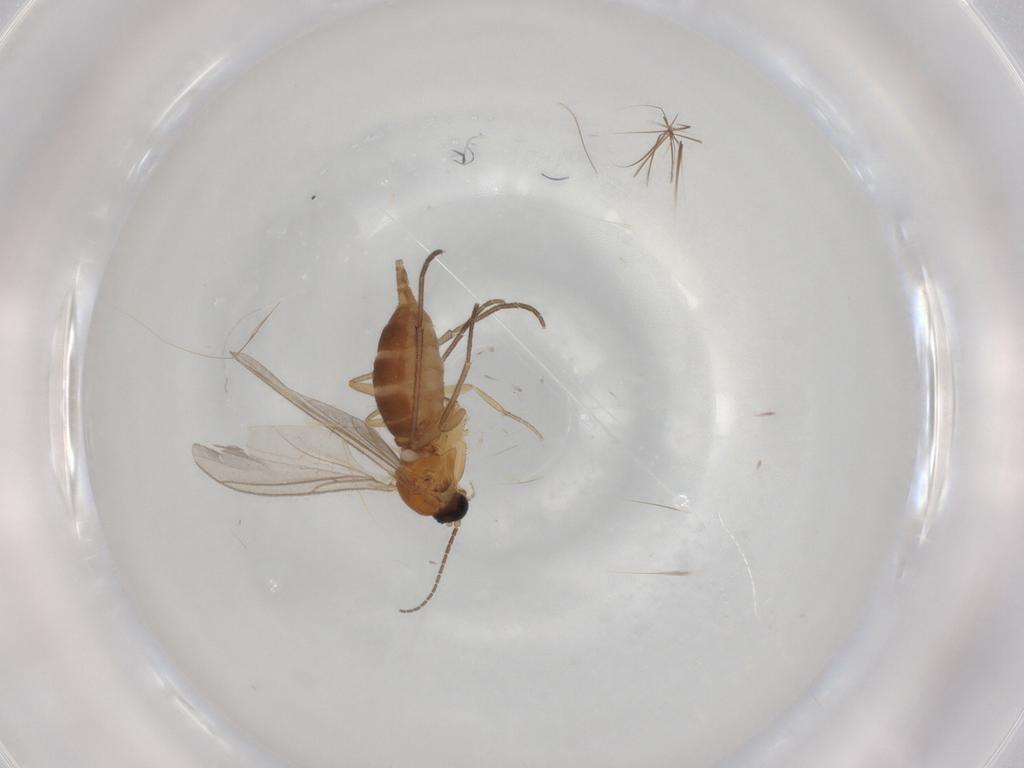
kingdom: Animalia
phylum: Arthropoda
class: Insecta
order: Diptera
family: Sciaridae
